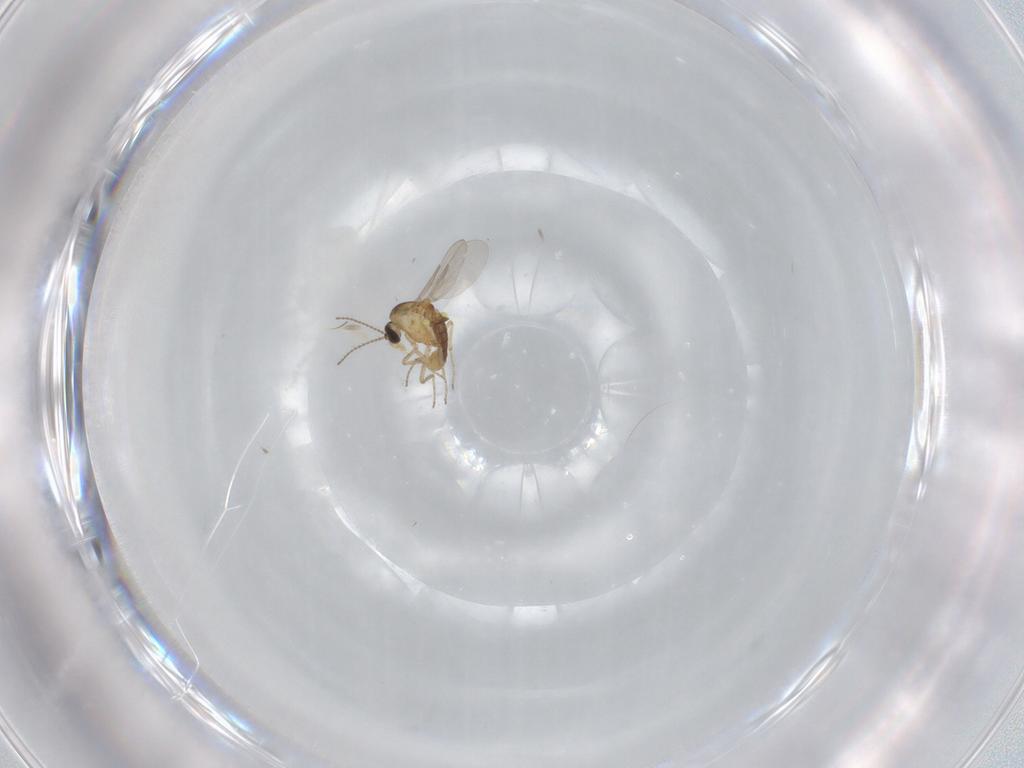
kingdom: Animalia
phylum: Arthropoda
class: Insecta
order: Diptera
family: Ceratopogonidae
